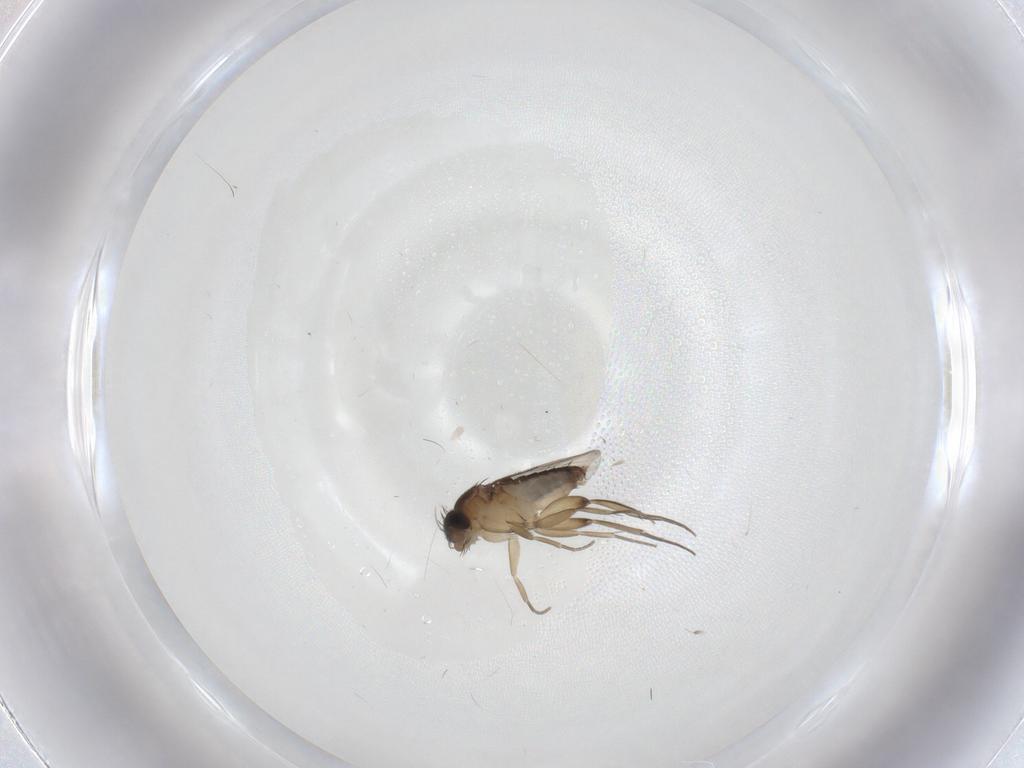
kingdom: Animalia
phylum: Arthropoda
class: Insecta
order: Diptera
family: Phoridae
